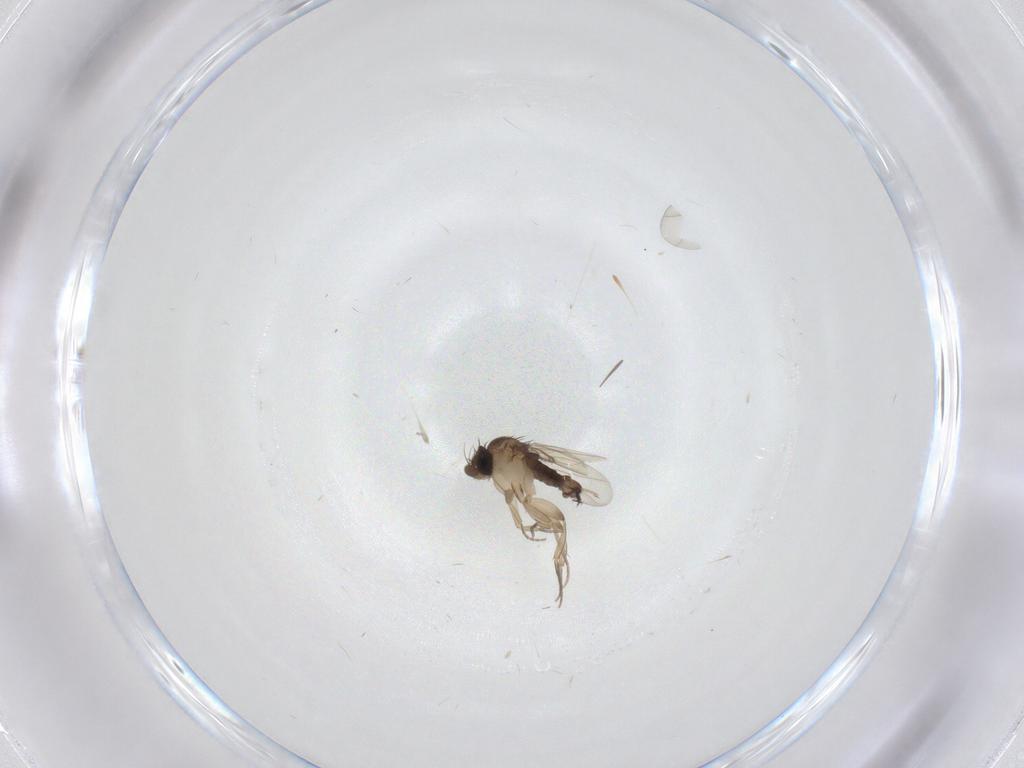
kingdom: Animalia
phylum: Arthropoda
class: Insecta
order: Diptera
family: Phoridae
